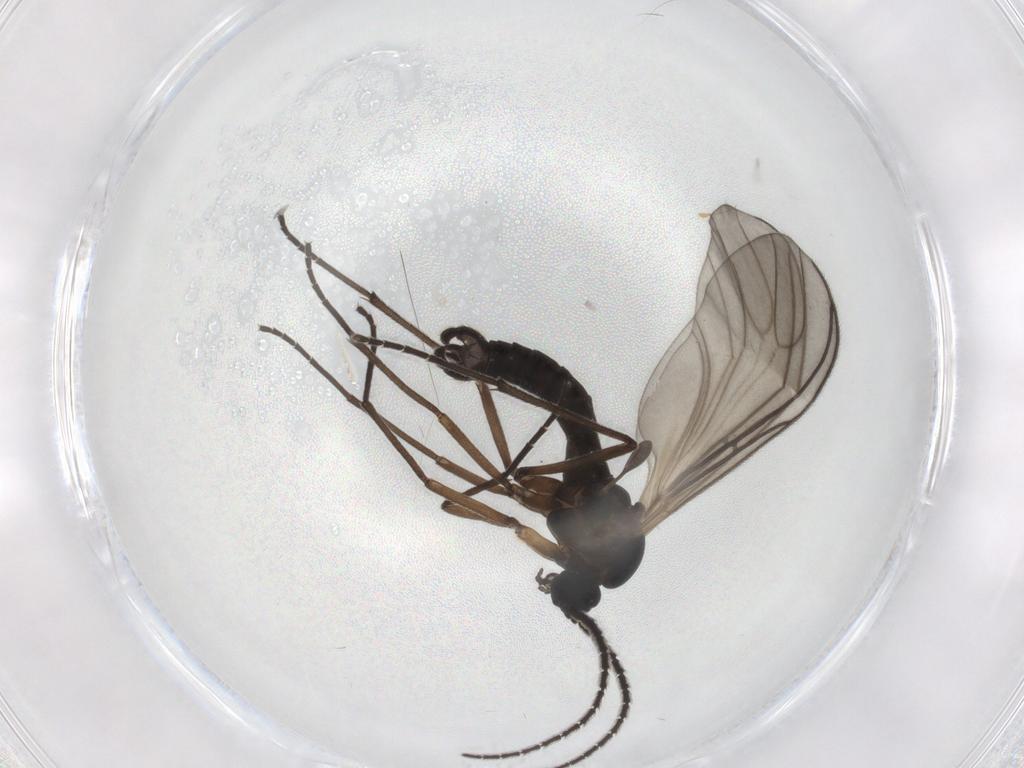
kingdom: Animalia
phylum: Arthropoda
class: Insecta
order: Diptera
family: Sciaridae
